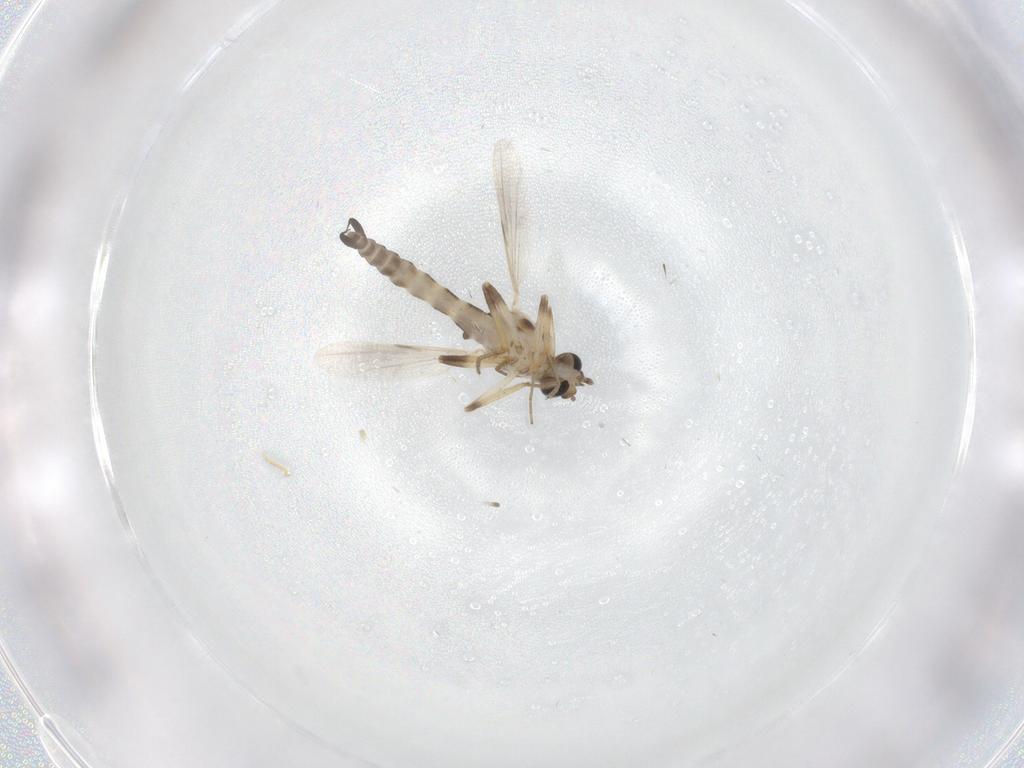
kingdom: Animalia
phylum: Arthropoda
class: Insecta
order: Diptera
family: Ceratopogonidae
